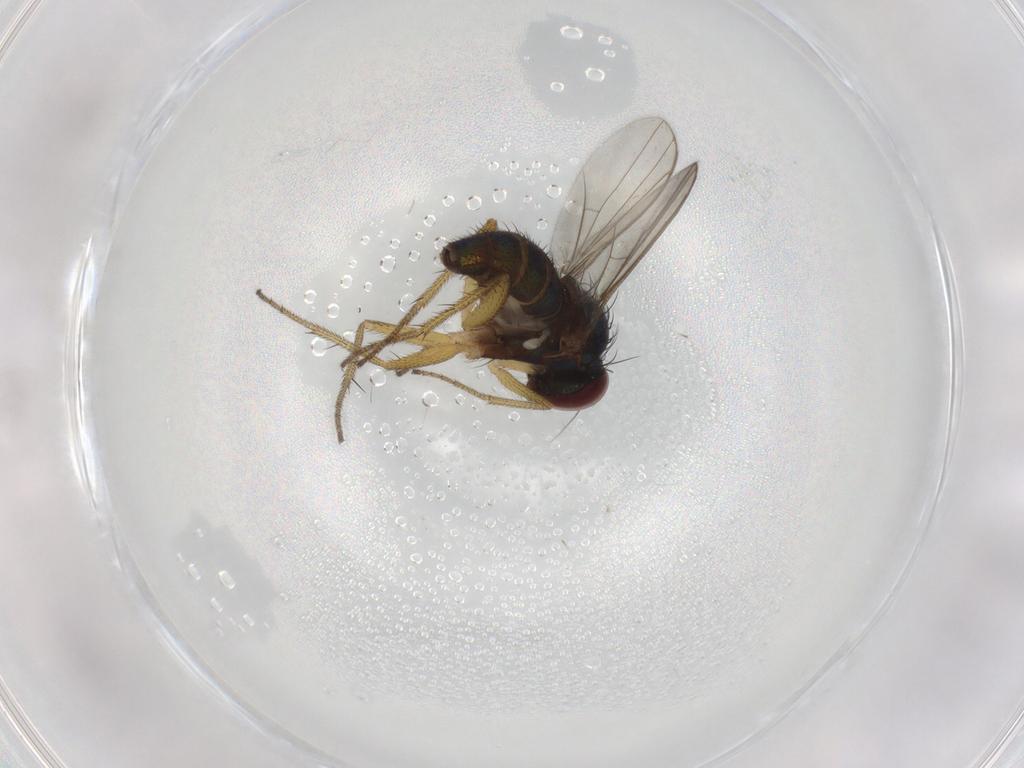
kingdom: Animalia
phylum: Arthropoda
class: Insecta
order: Diptera
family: Dolichopodidae
